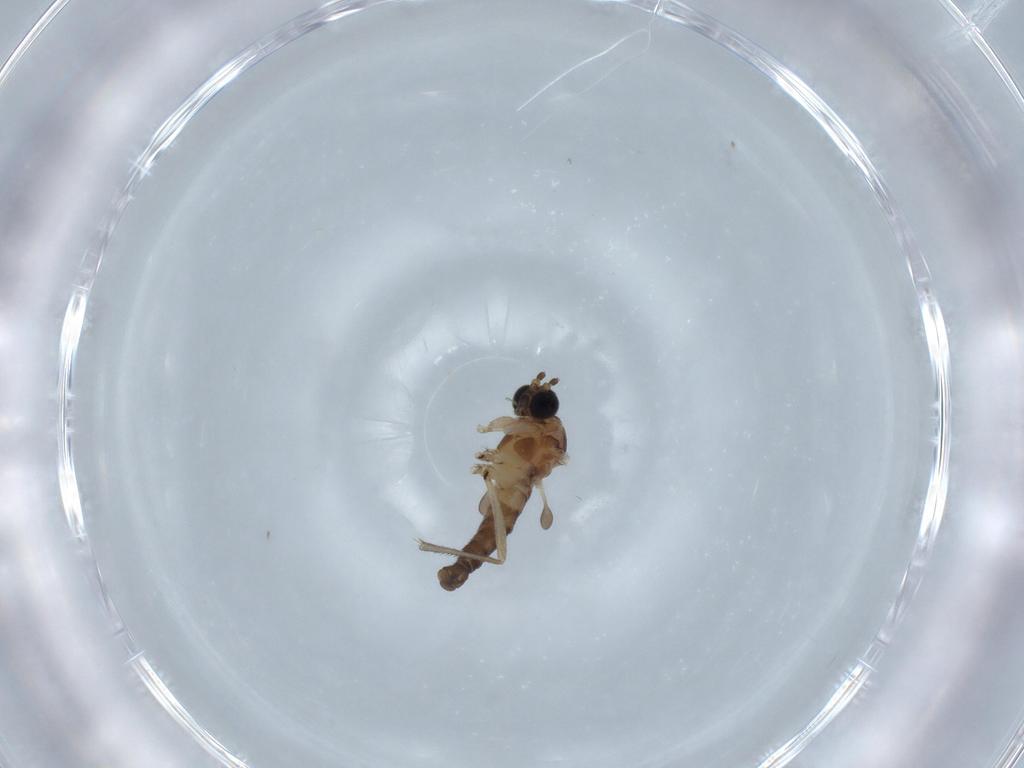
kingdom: Animalia
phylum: Arthropoda
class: Insecta
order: Diptera
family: Sciaridae
